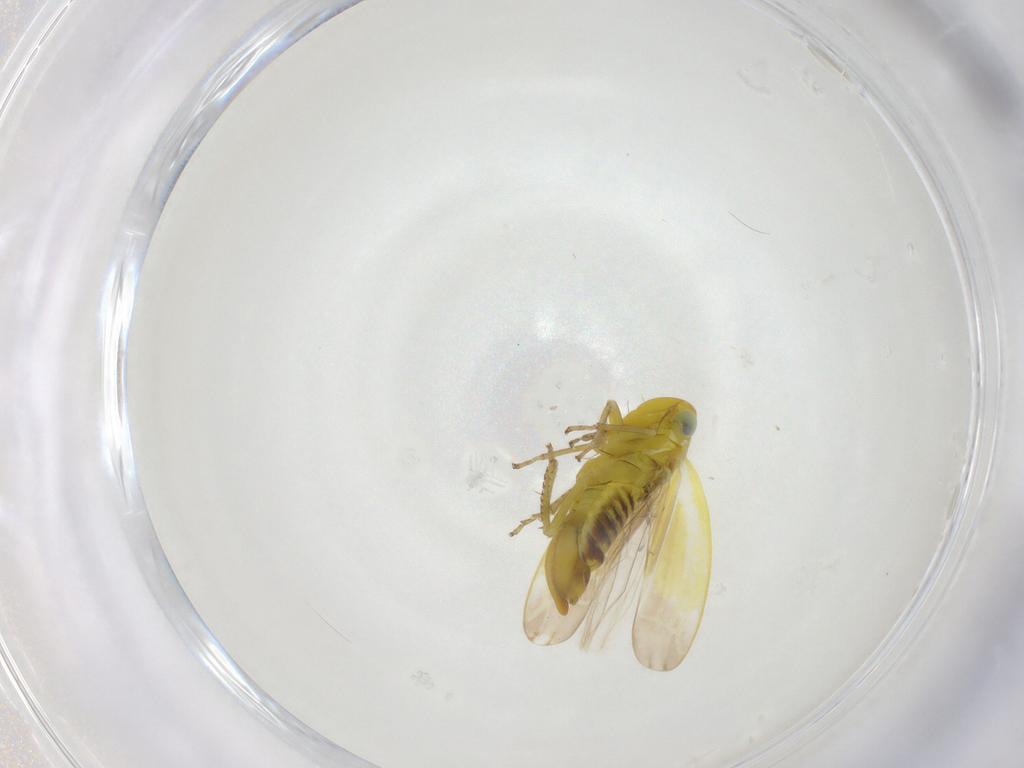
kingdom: Animalia
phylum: Arthropoda
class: Insecta
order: Hemiptera
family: Cicadellidae
